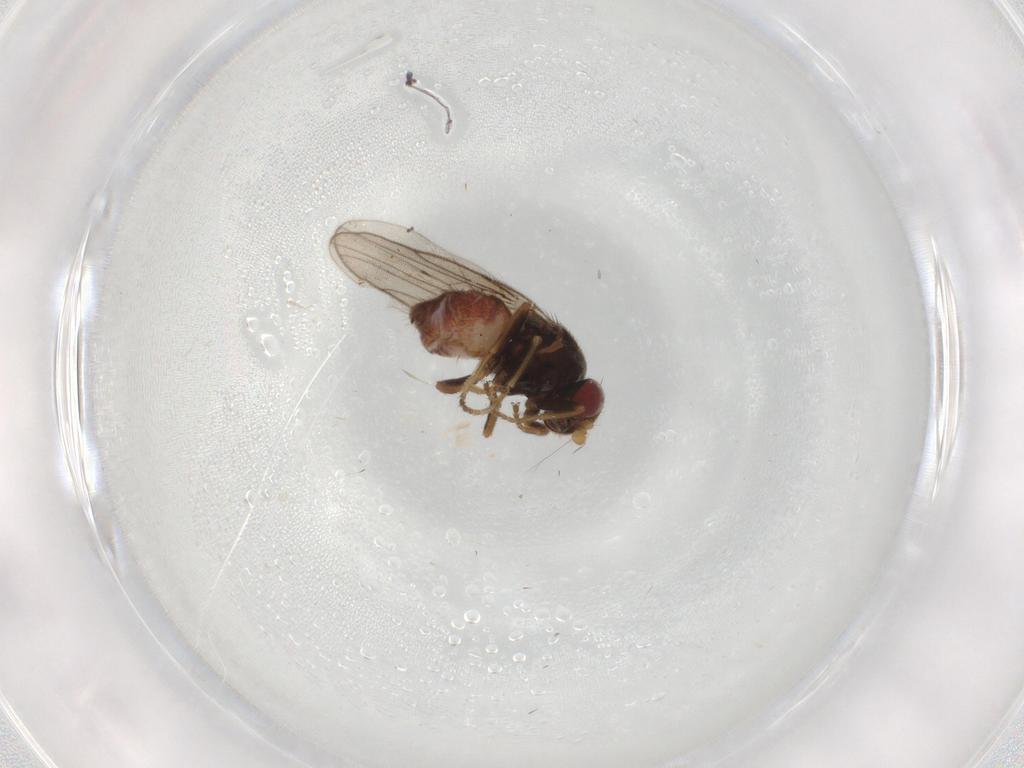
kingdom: Animalia
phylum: Arthropoda
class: Insecta
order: Diptera
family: Chloropidae
